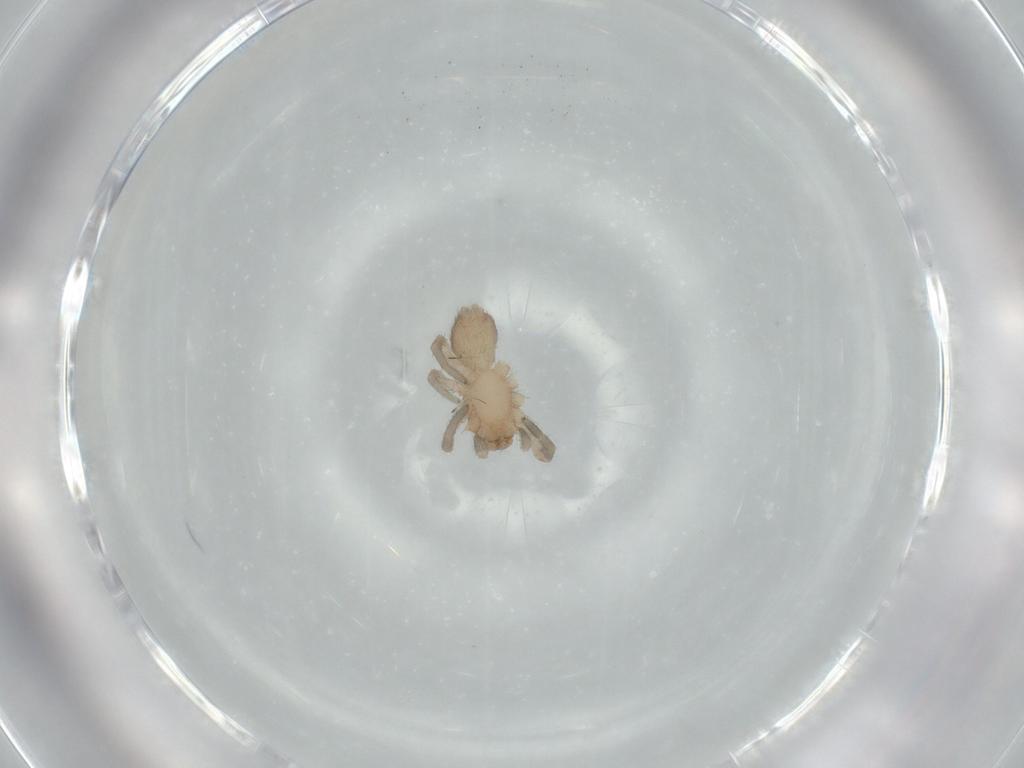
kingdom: Animalia
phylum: Arthropoda
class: Arachnida
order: Araneae
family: Gnaphosidae
